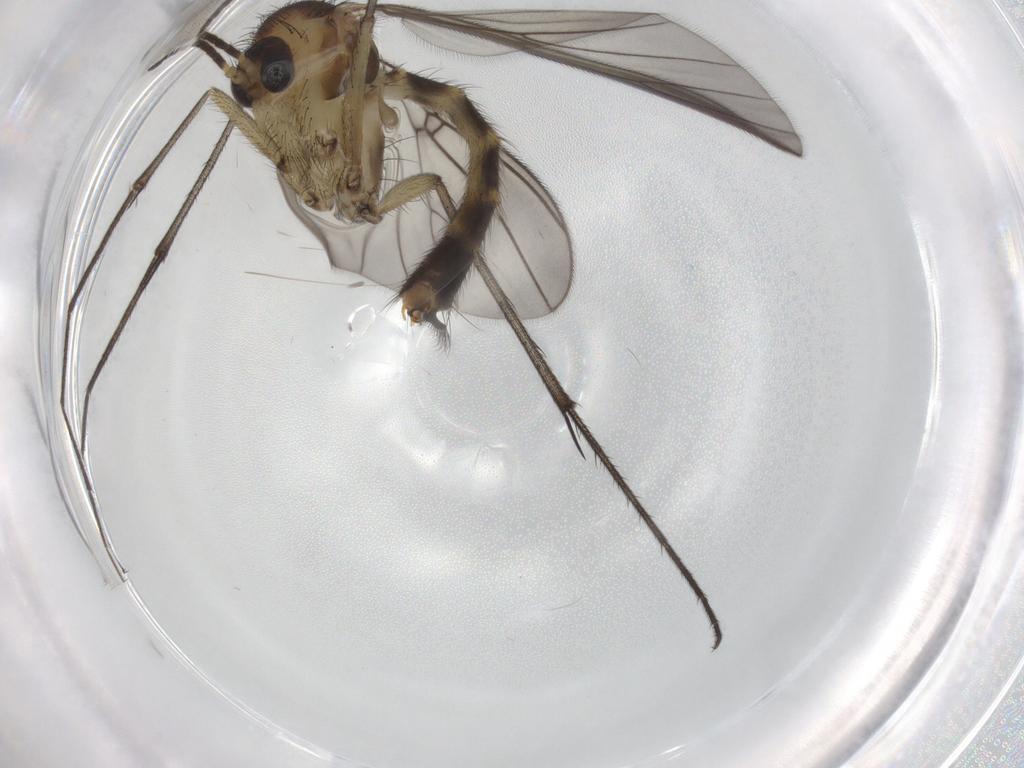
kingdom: Animalia
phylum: Arthropoda
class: Insecta
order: Diptera
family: Mycetophilidae
